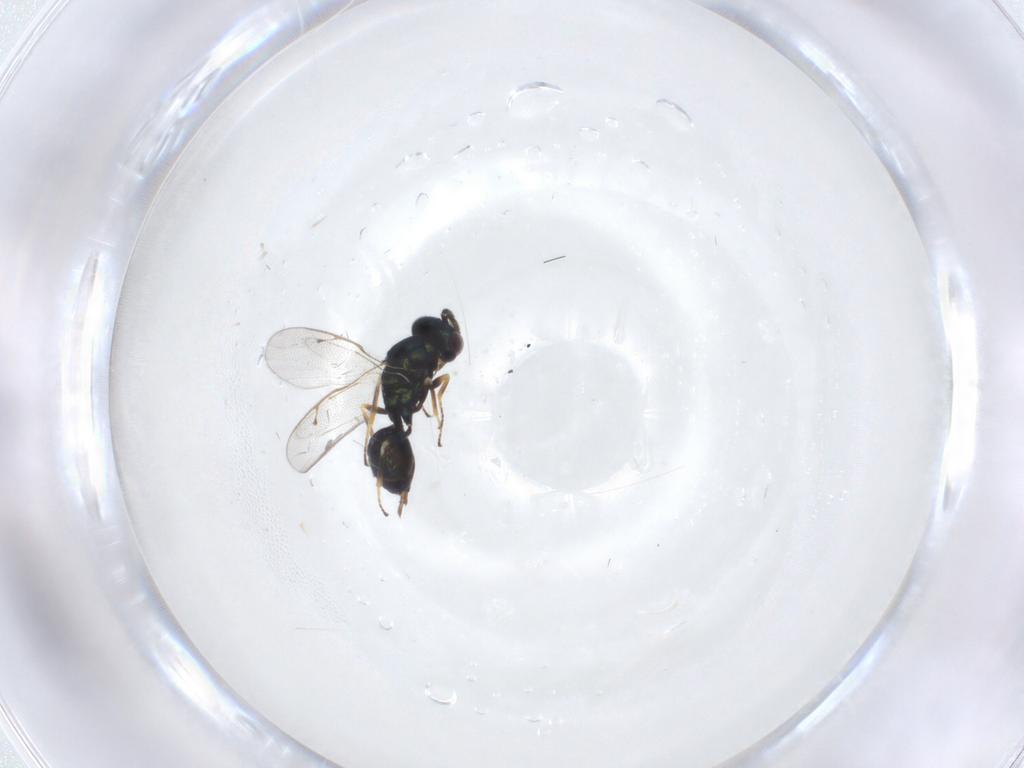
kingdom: Animalia
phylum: Arthropoda
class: Insecta
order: Hymenoptera
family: Pteromalidae
